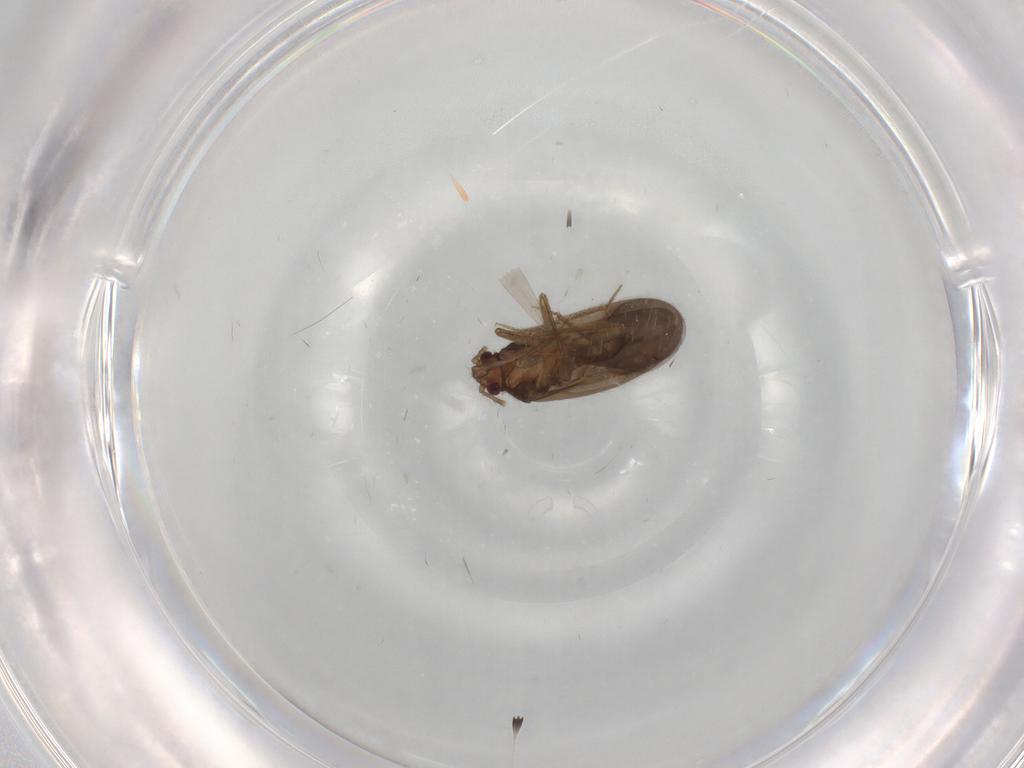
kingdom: Animalia
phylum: Arthropoda
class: Insecta
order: Hemiptera
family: Ceratocombidae
